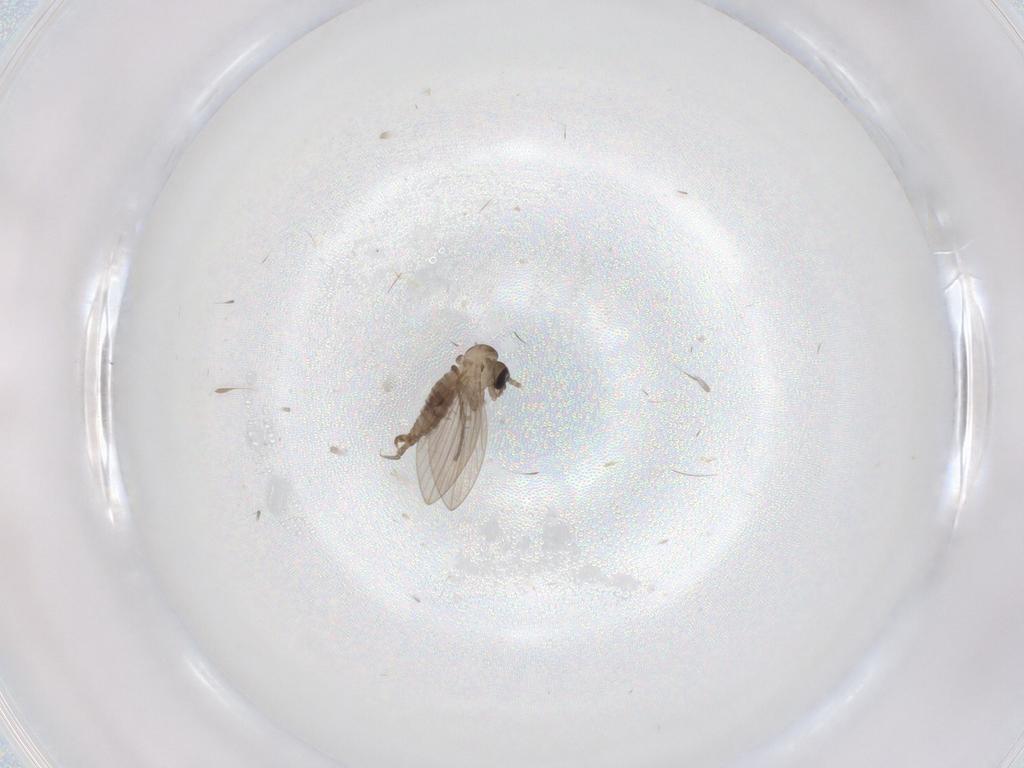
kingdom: Animalia
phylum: Arthropoda
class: Insecta
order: Diptera
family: Psychodidae
